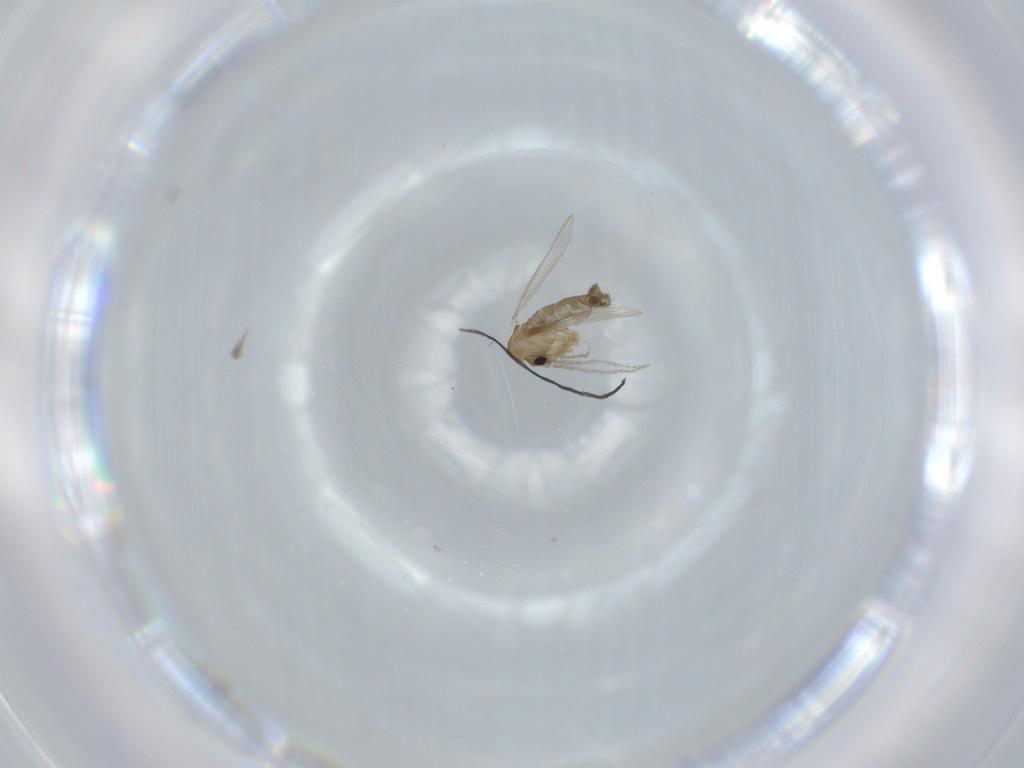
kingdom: Animalia
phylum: Arthropoda
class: Insecta
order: Diptera
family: Psychodidae
